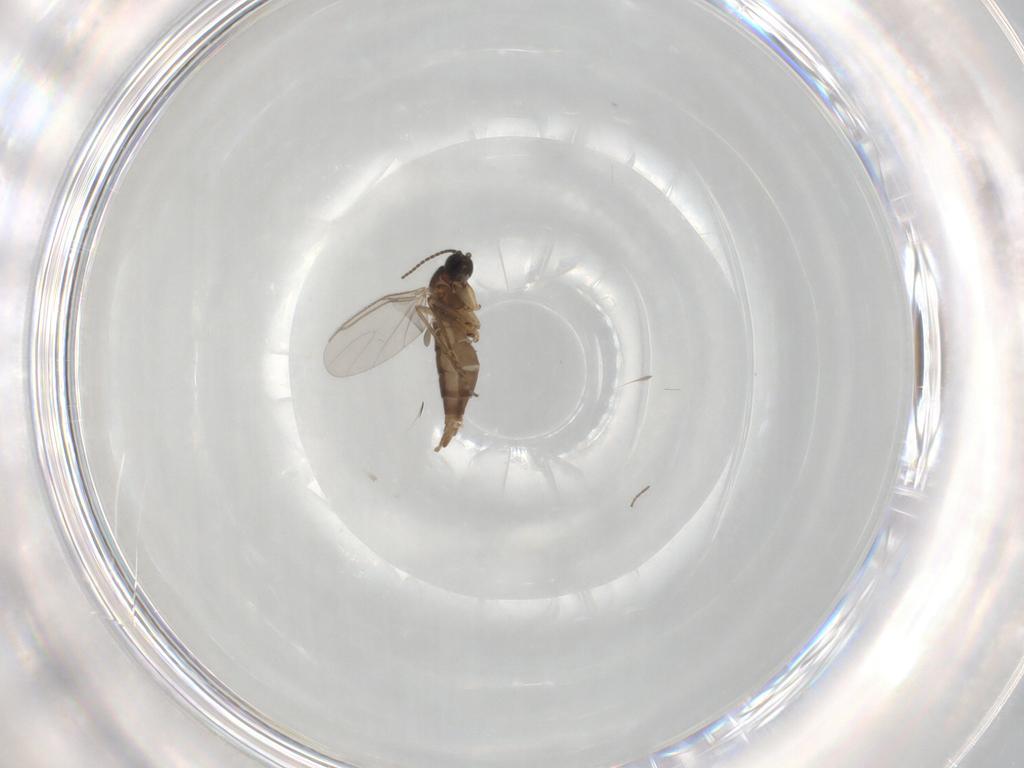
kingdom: Animalia
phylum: Arthropoda
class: Insecta
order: Diptera
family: Sciaridae
